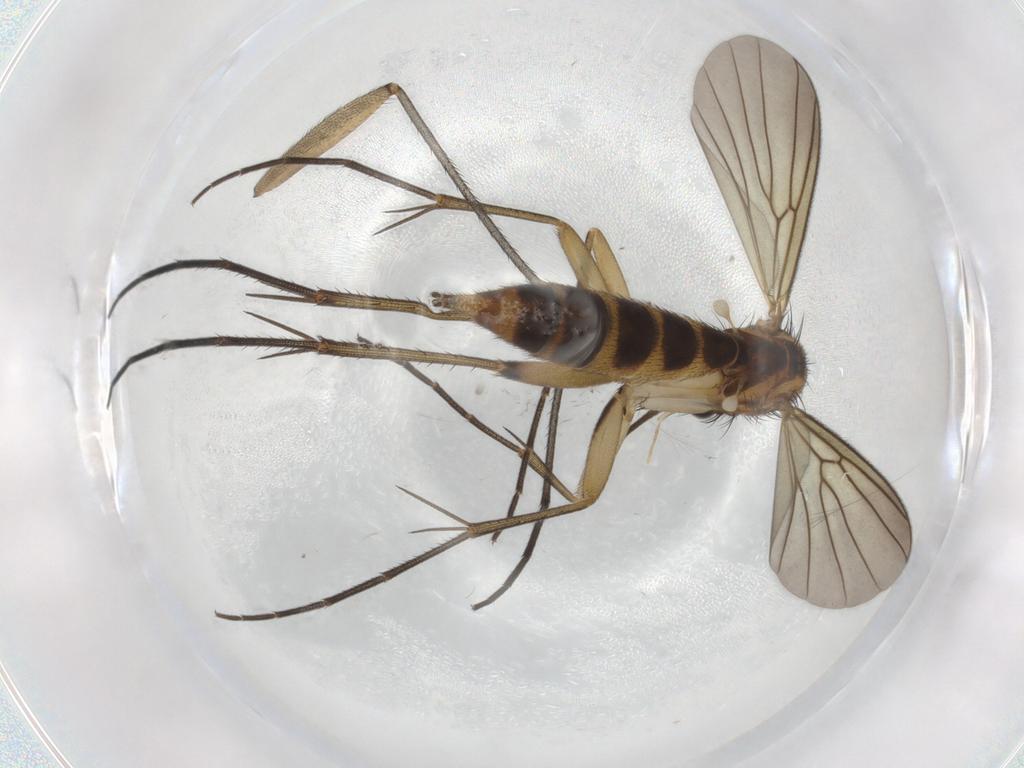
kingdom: Animalia
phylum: Arthropoda
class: Insecta
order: Diptera
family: Mycetophilidae
